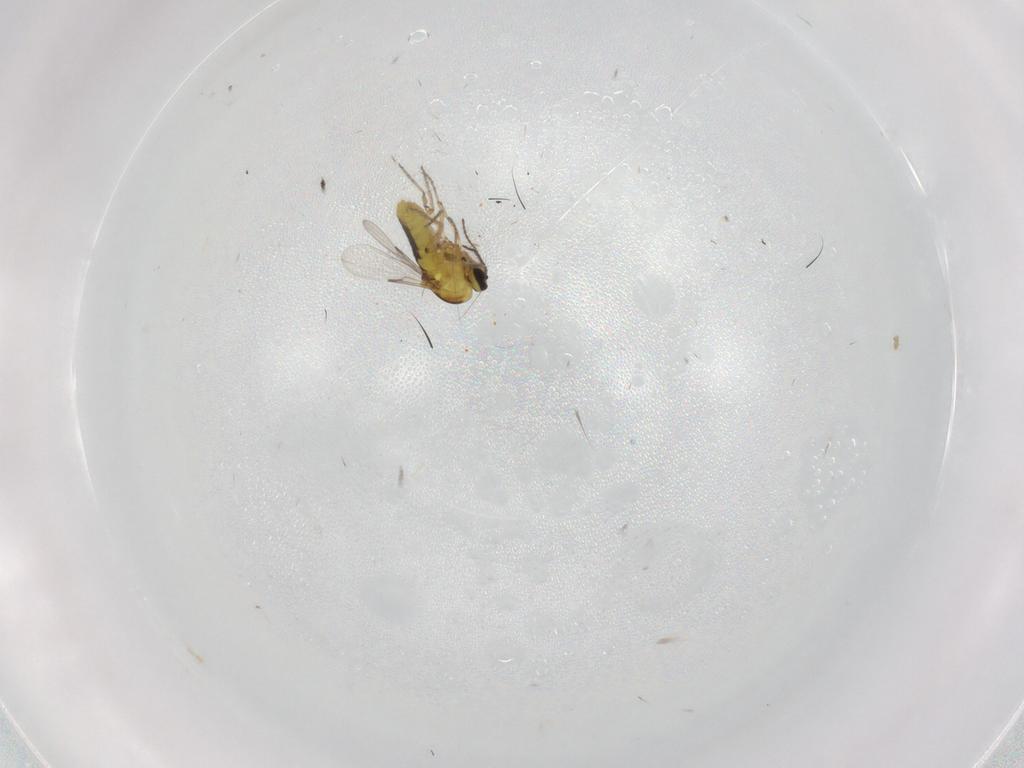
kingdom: Animalia
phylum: Arthropoda
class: Insecta
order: Diptera
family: Ceratopogonidae
